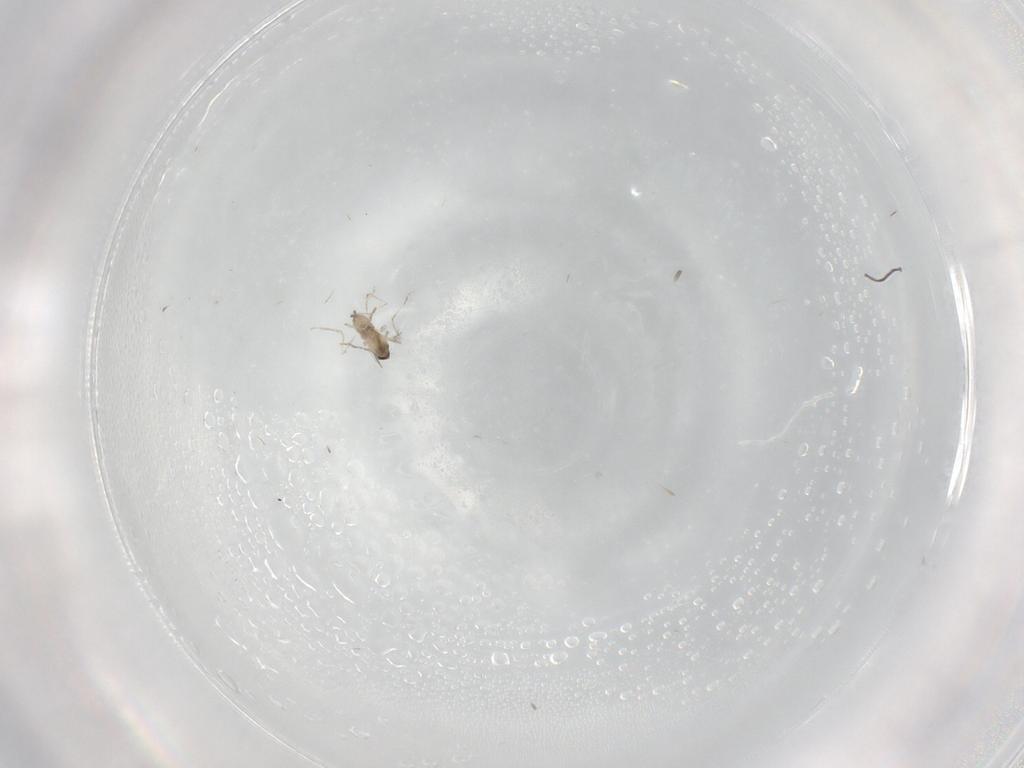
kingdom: Animalia
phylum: Arthropoda
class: Insecta
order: Diptera
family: Cecidomyiidae
